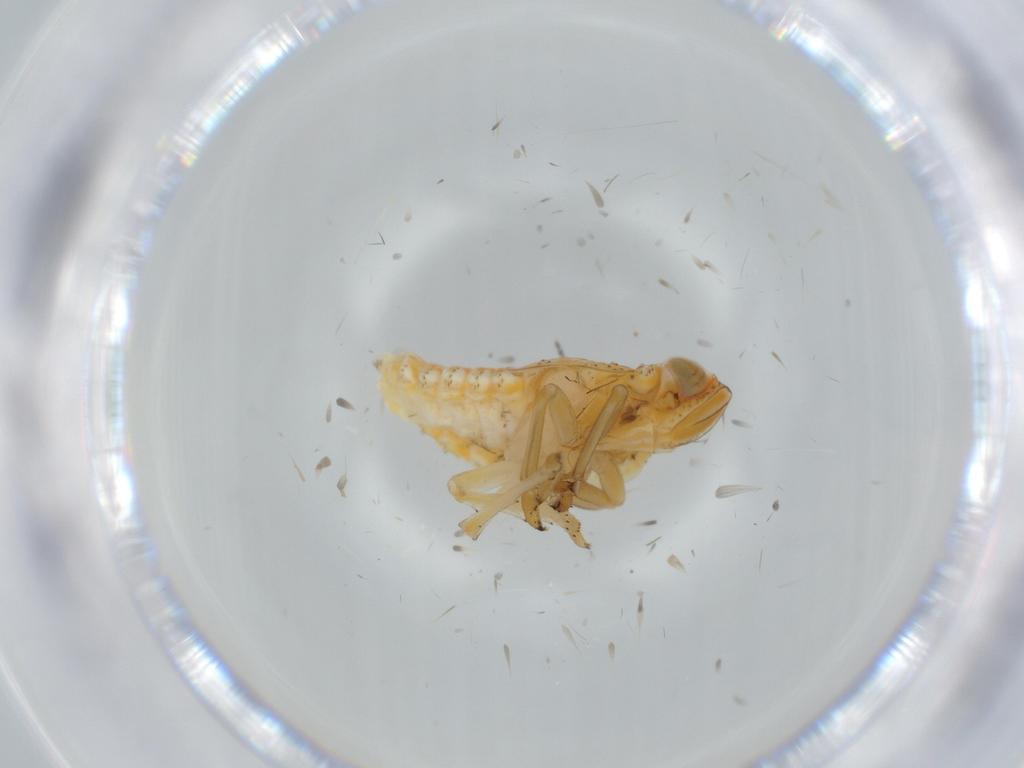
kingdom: Animalia
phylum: Arthropoda
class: Insecta
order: Hemiptera
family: Issidae
